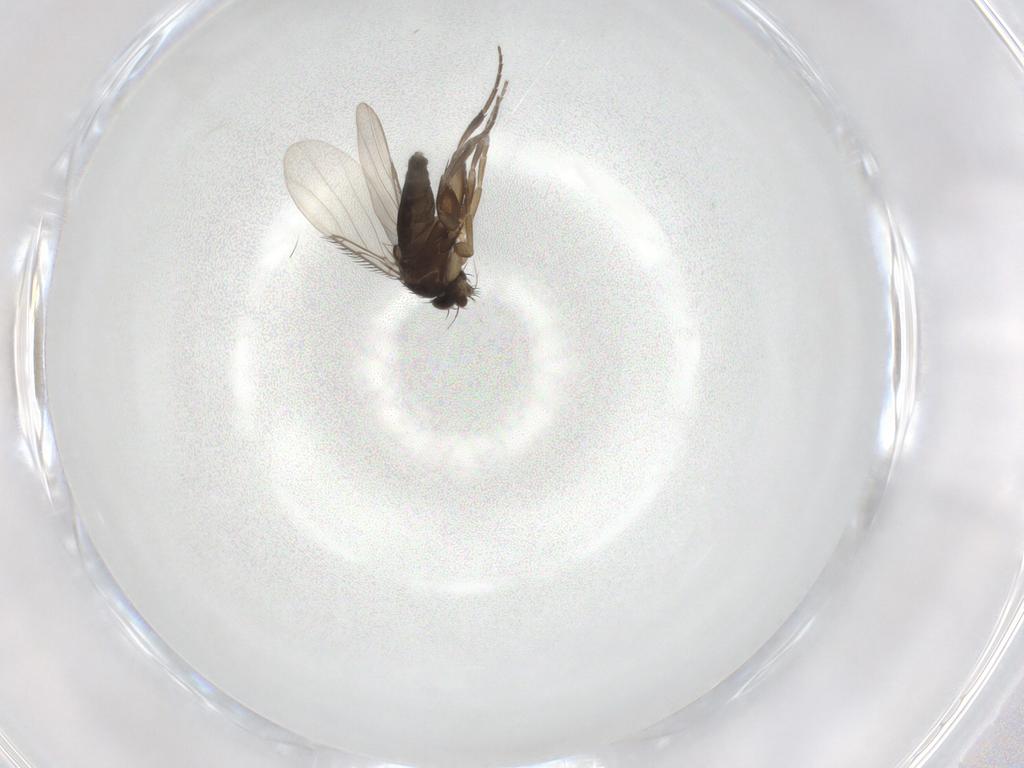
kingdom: Animalia
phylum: Arthropoda
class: Insecta
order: Diptera
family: Phoridae
